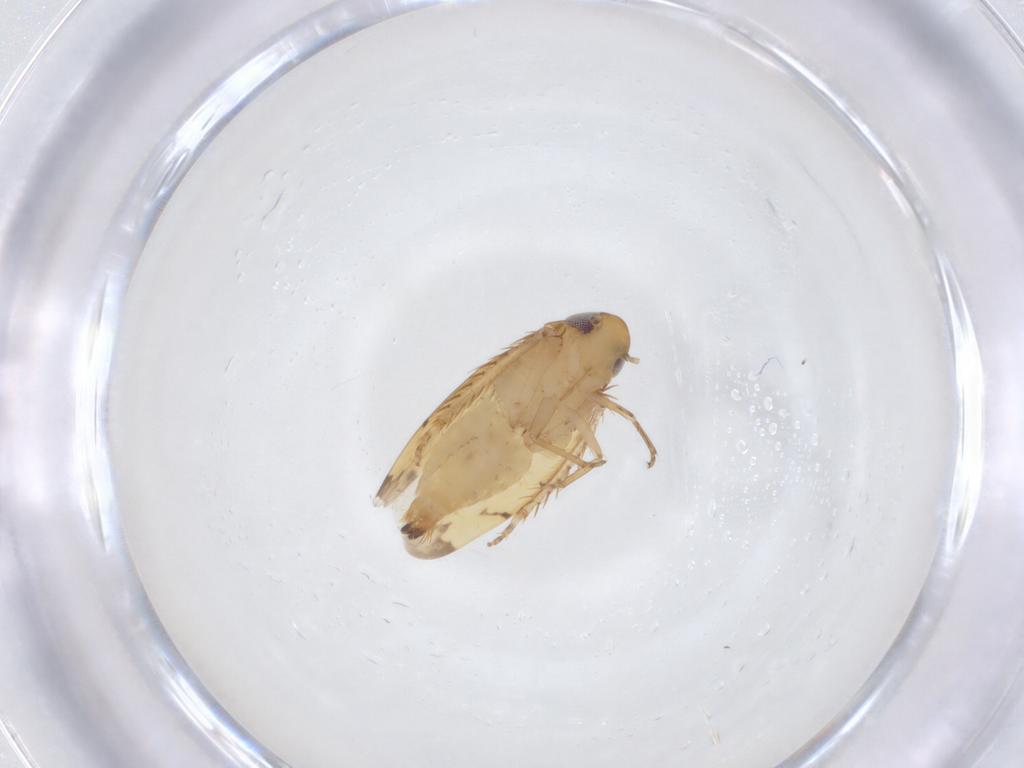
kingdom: Animalia
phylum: Arthropoda
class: Insecta
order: Hemiptera
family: Cicadellidae
